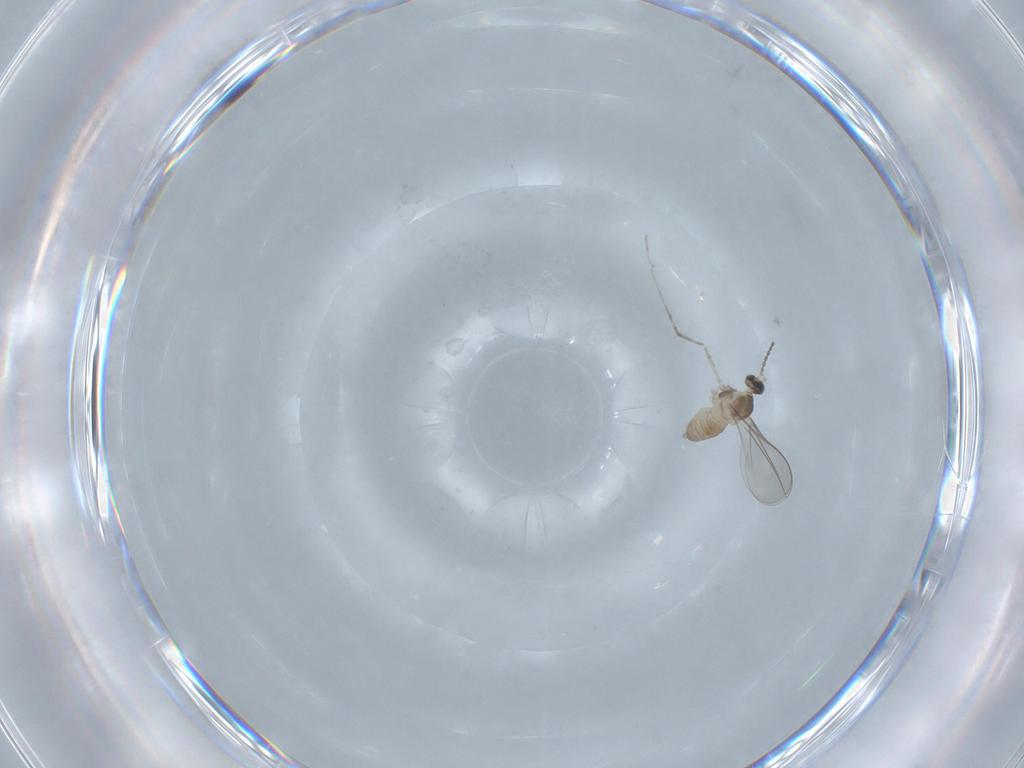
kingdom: Animalia
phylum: Arthropoda
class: Insecta
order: Diptera
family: Cecidomyiidae
